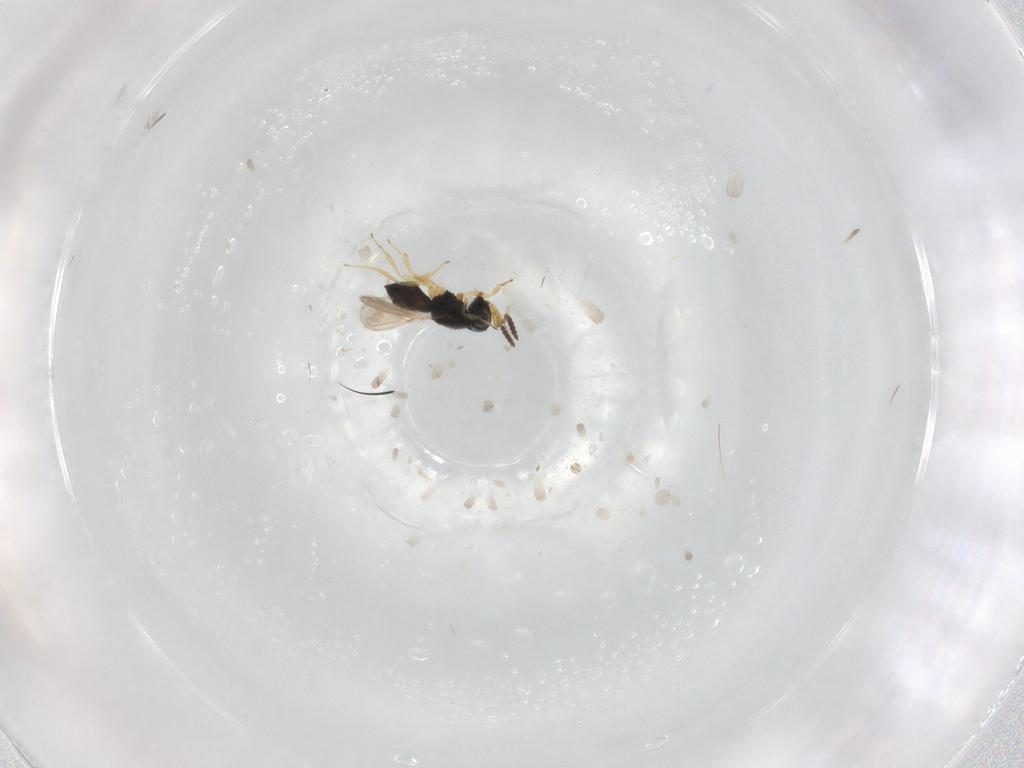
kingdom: Animalia
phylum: Arthropoda
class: Insecta
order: Hymenoptera
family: Scelionidae
